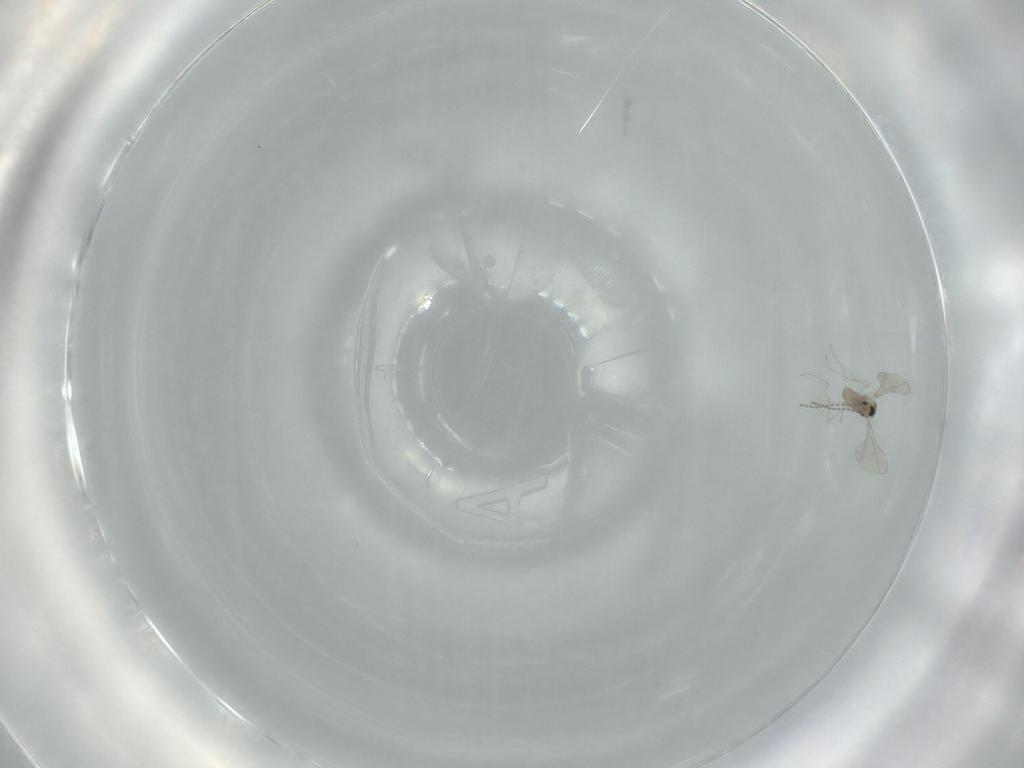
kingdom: Animalia
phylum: Arthropoda
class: Insecta
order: Diptera
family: Cecidomyiidae
